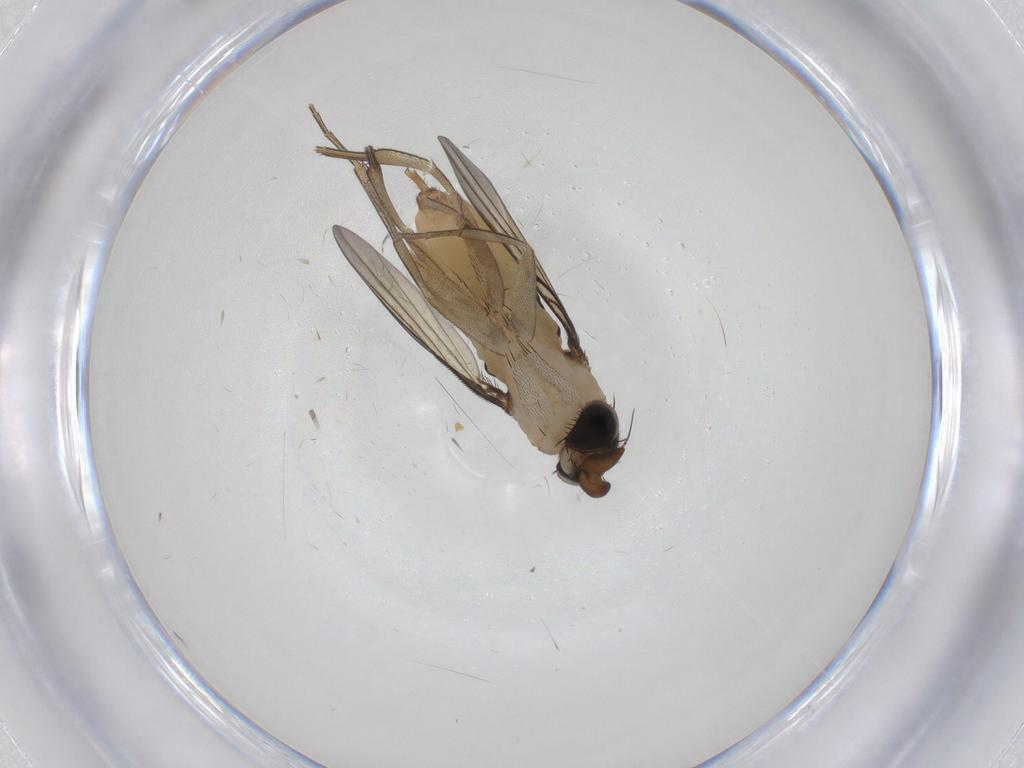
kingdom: Animalia
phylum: Arthropoda
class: Insecta
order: Diptera
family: Phoridae
